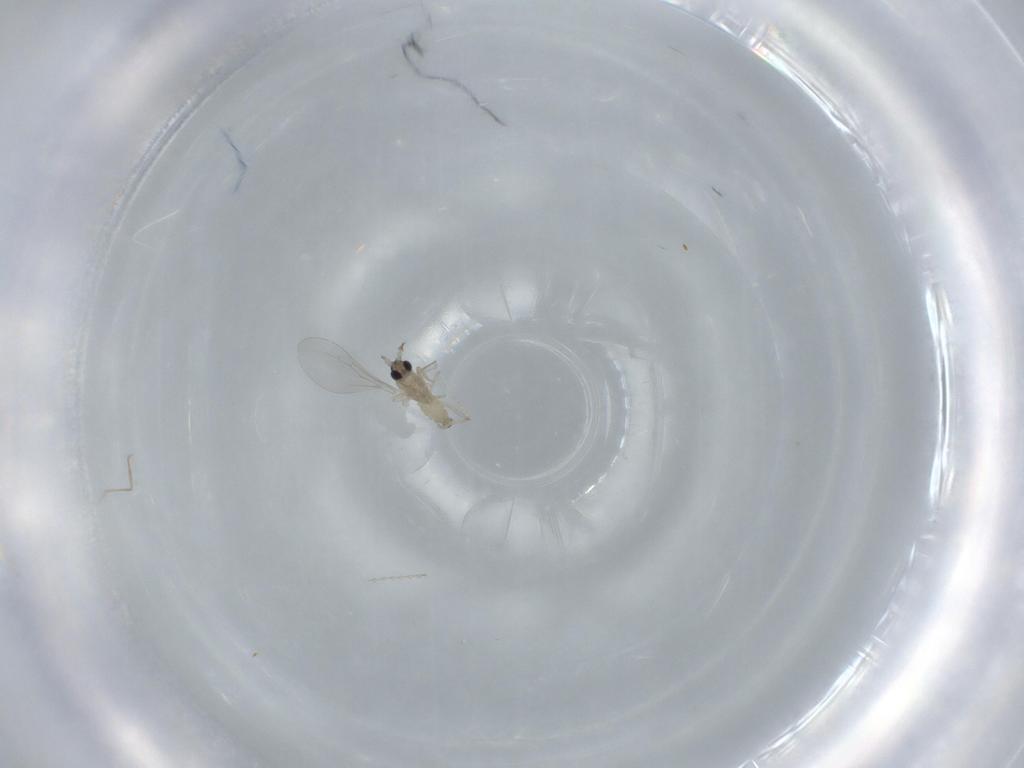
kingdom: Animalia
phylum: Arthropoda
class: Insecta
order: Diptera
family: Cecidomyiidae
